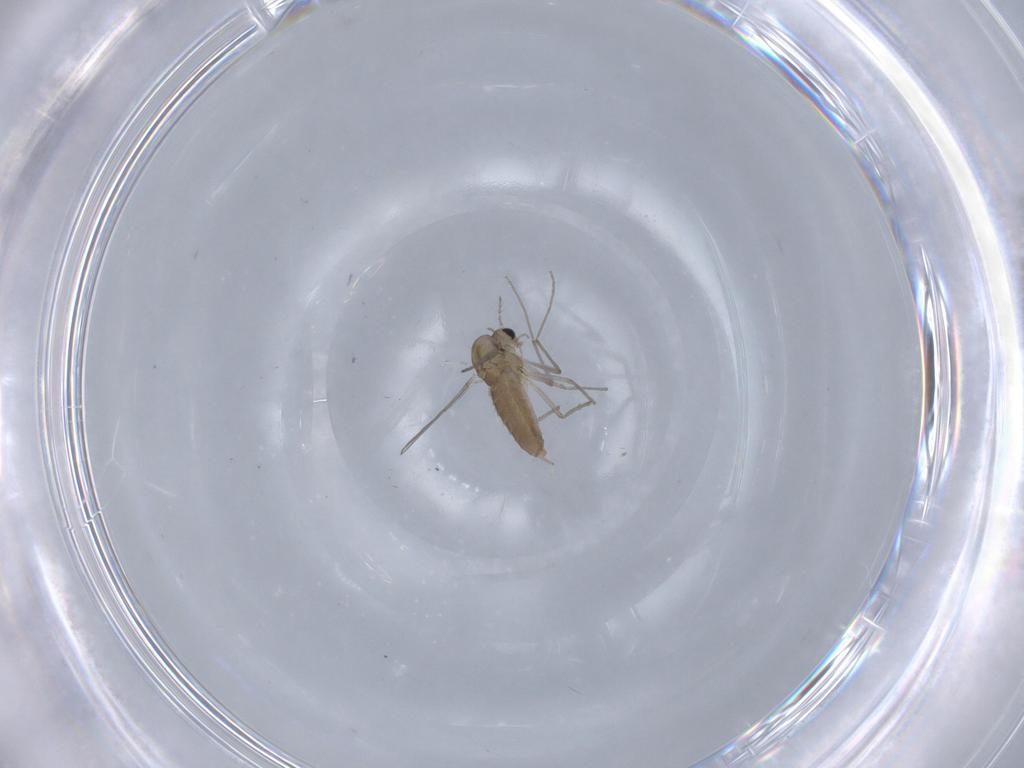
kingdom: Animalia
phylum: Arthropoda
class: Insecta
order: Diptera
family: Chironomidae
